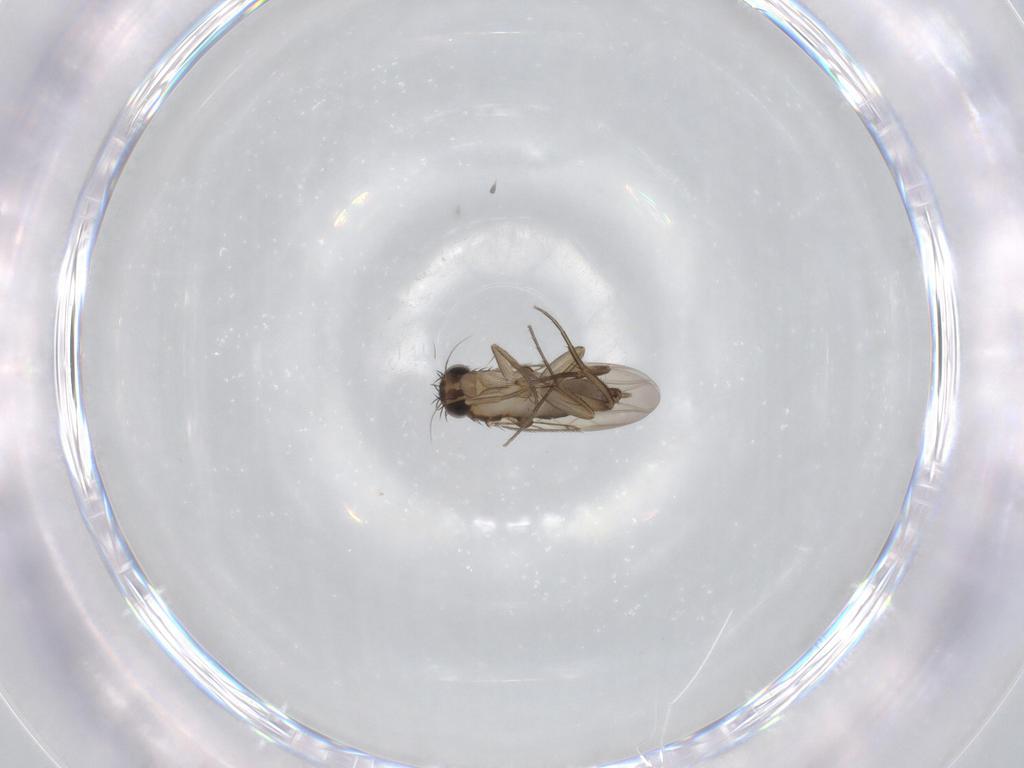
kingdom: Animalia
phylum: Arthropoda
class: Insecta
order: Diptera
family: Phoridae
